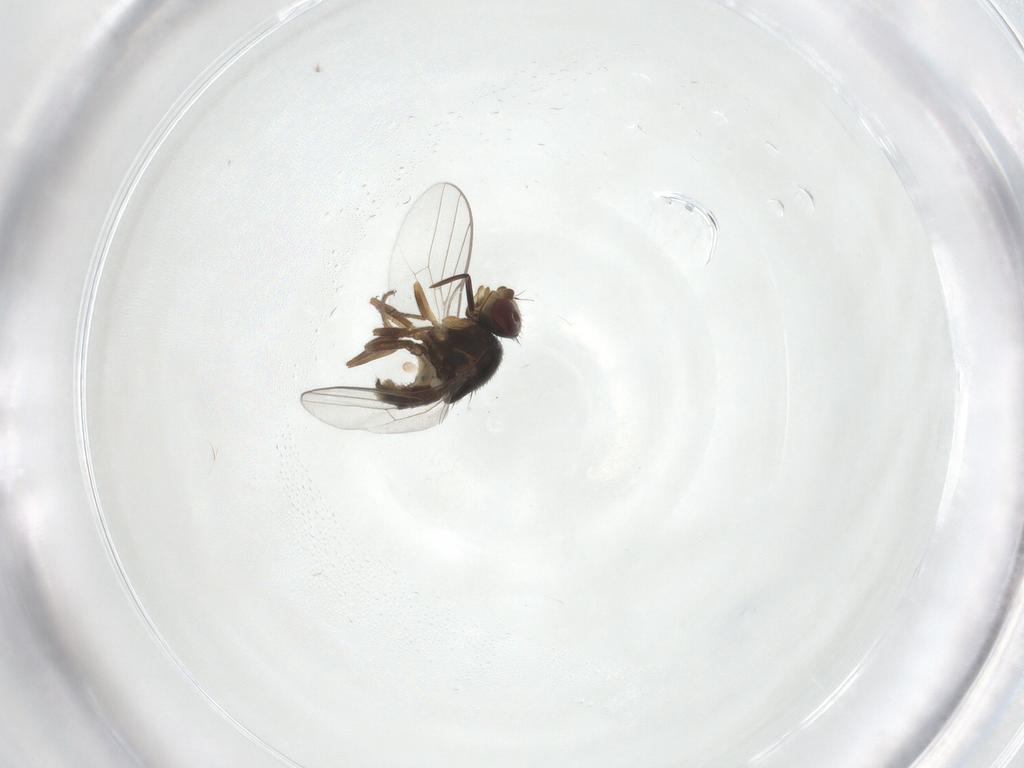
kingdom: Animalia
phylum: Arthropoda
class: Insecta
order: Diptera
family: Chloropidae
